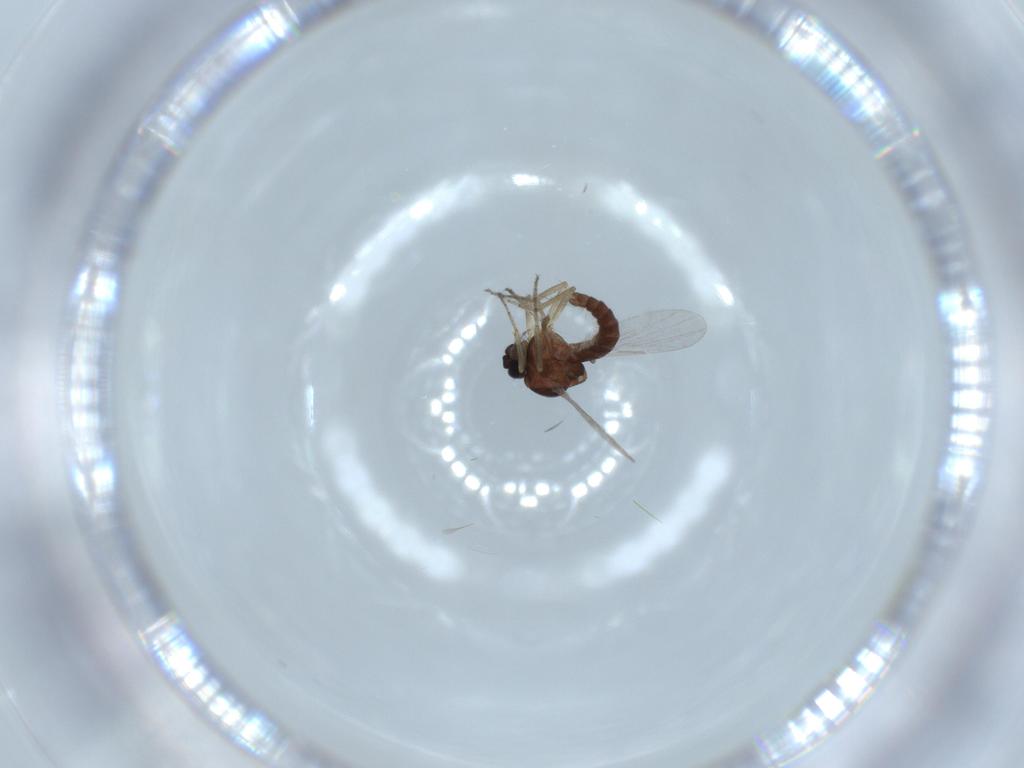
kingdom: Animalia
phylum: Arthropoda
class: Insecta
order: Diptera
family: Ceratopogonidae
